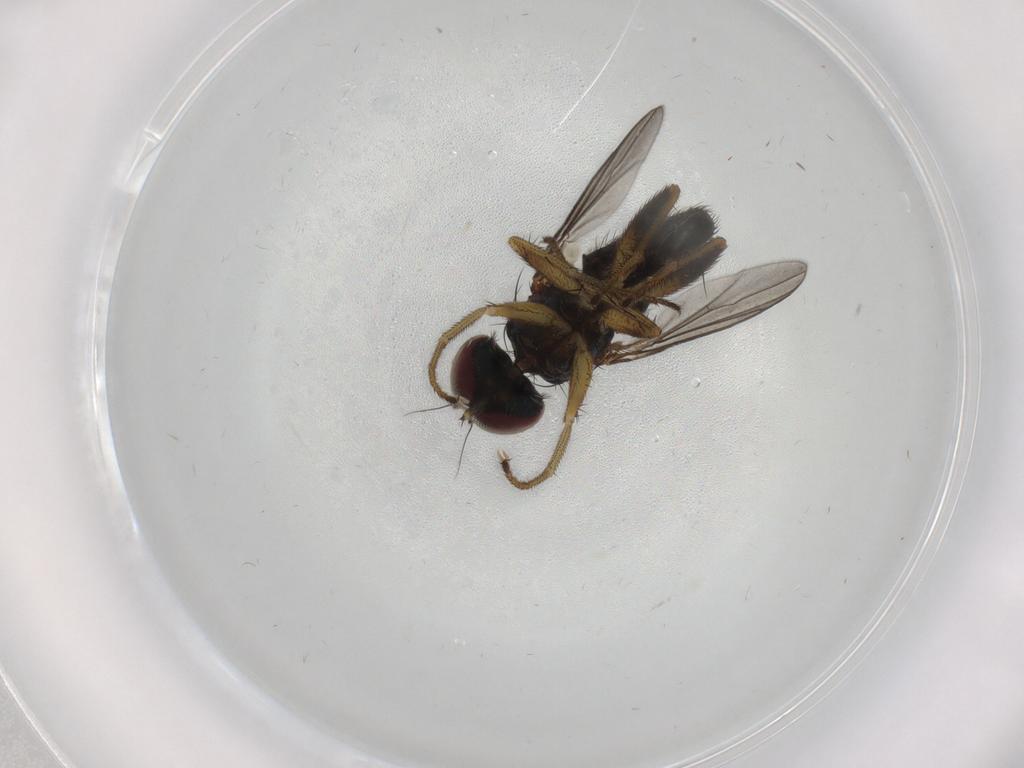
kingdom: Animalia
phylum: Arthropoda
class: Insecta
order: Diptera
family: Dolichopodidae
